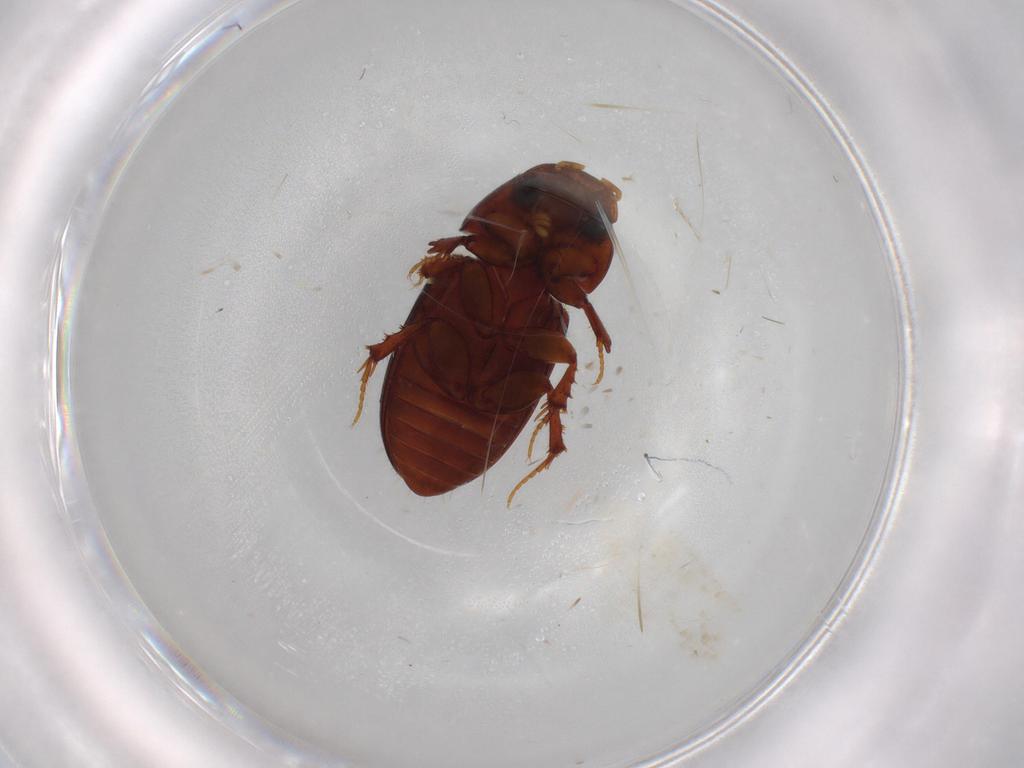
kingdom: Animalia
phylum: Arthropoda
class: Insecta
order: Coleoptera
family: Scarabaeidae
